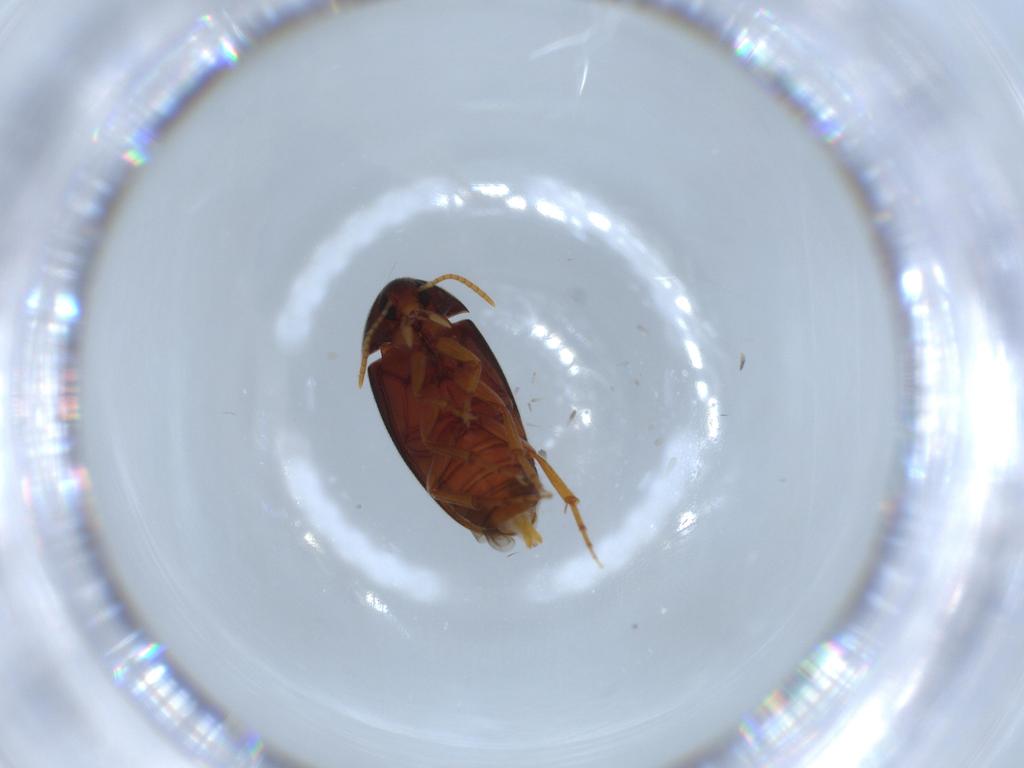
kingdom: Animalia
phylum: Arthropoda
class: Insecta
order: Coleoptera
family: Scraptiidae
